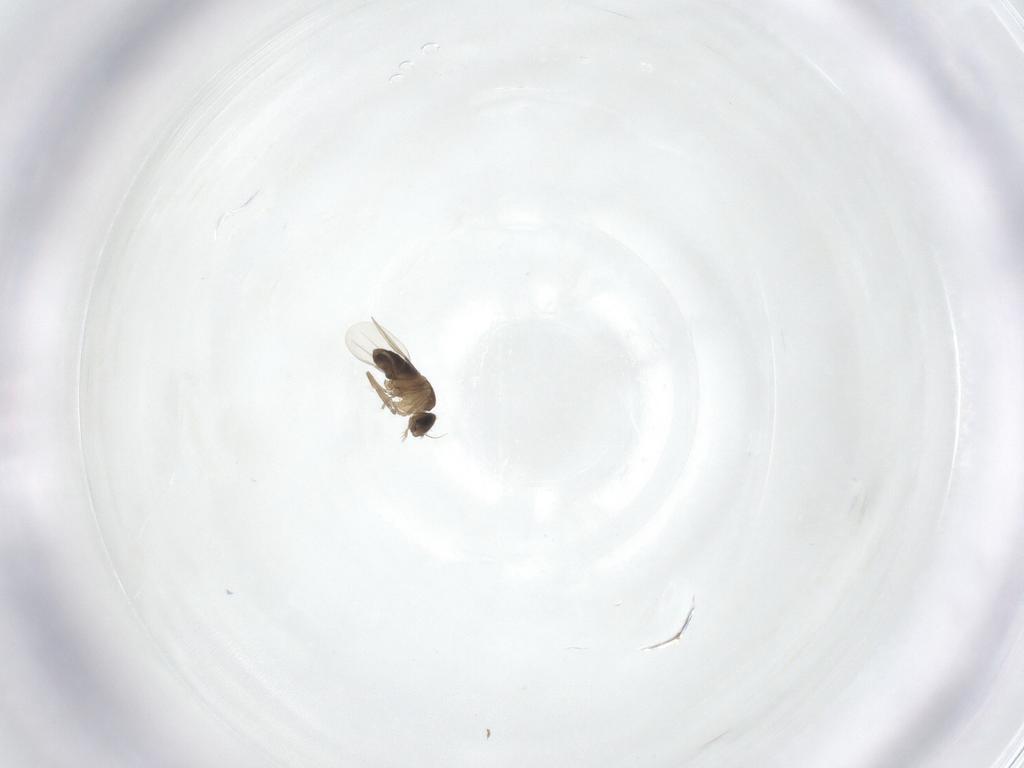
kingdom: Animalia
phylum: Arthropoda
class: Insecta
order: Diptera
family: Phoridae
